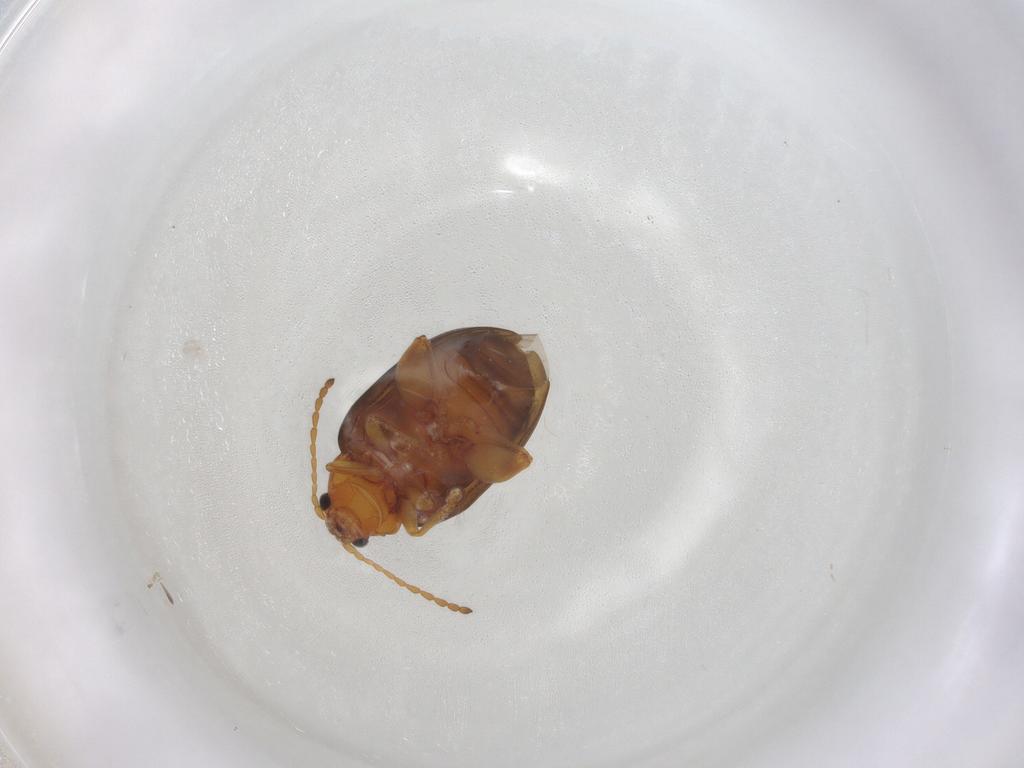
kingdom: Animalia
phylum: Arthropoda
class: Insecta
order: Coleoptera
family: Chrysomelidae
